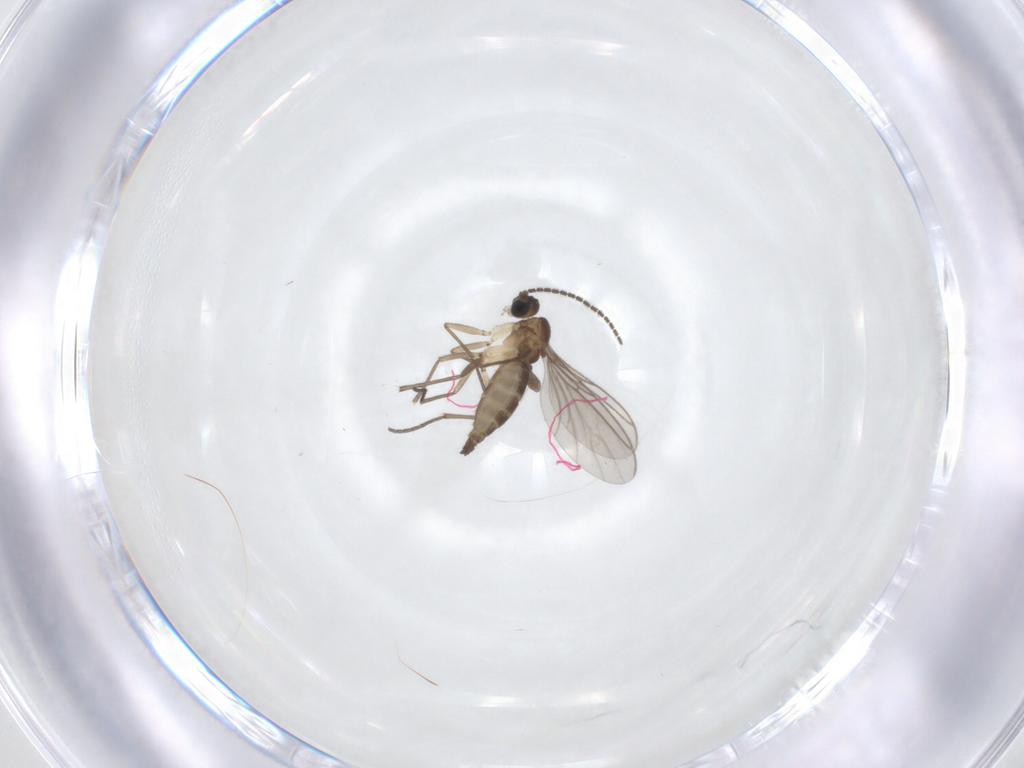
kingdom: Animalia
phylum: Arthropoda
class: Insecta
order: Diptera
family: Sciaridae
